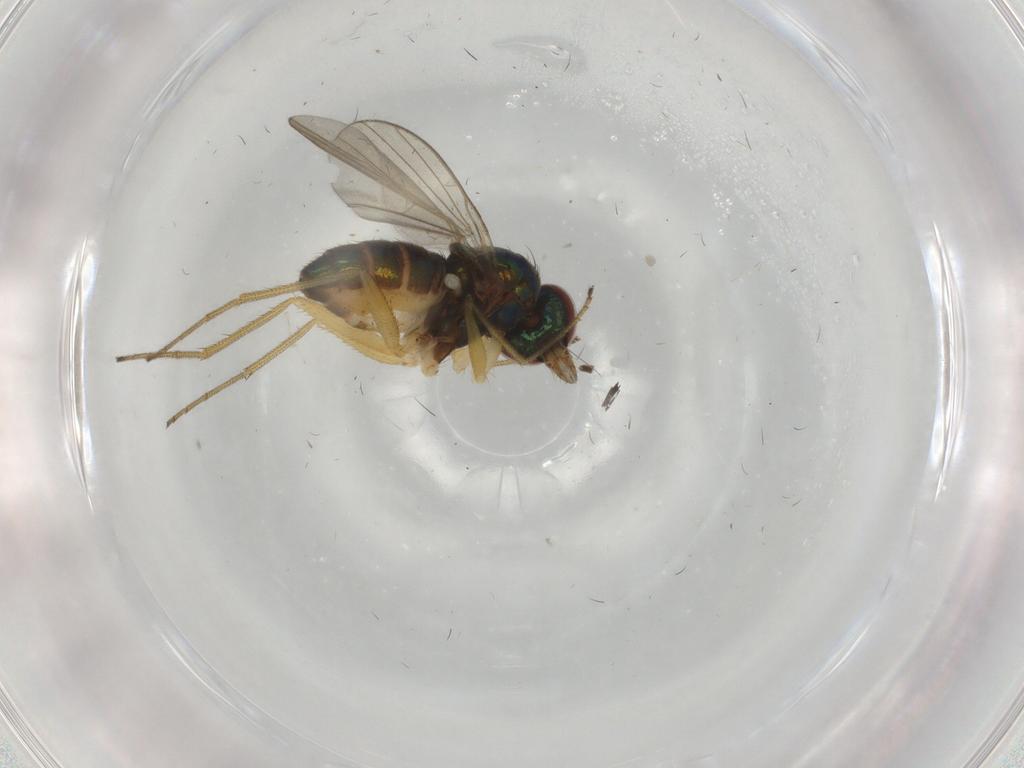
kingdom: Animalia
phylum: Arthropoda
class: Insecta
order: Diptera
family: Dolichopodidae
